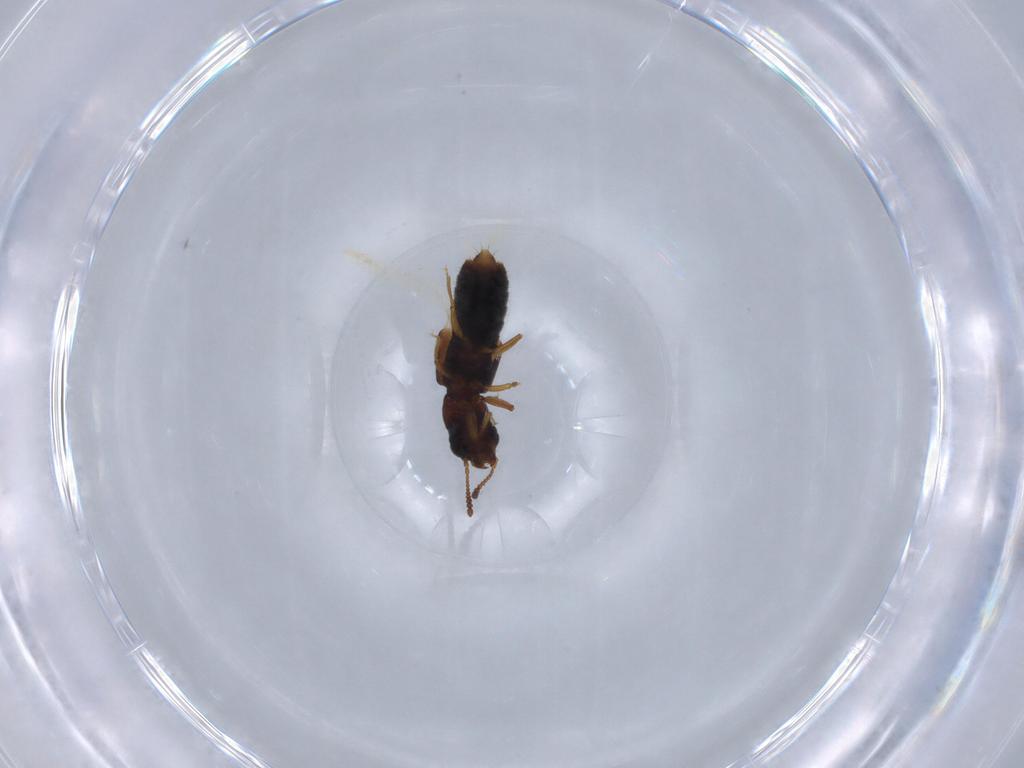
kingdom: Animalia
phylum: Arthropoda
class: Insecta
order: Coleoptera
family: Staphylinidae
